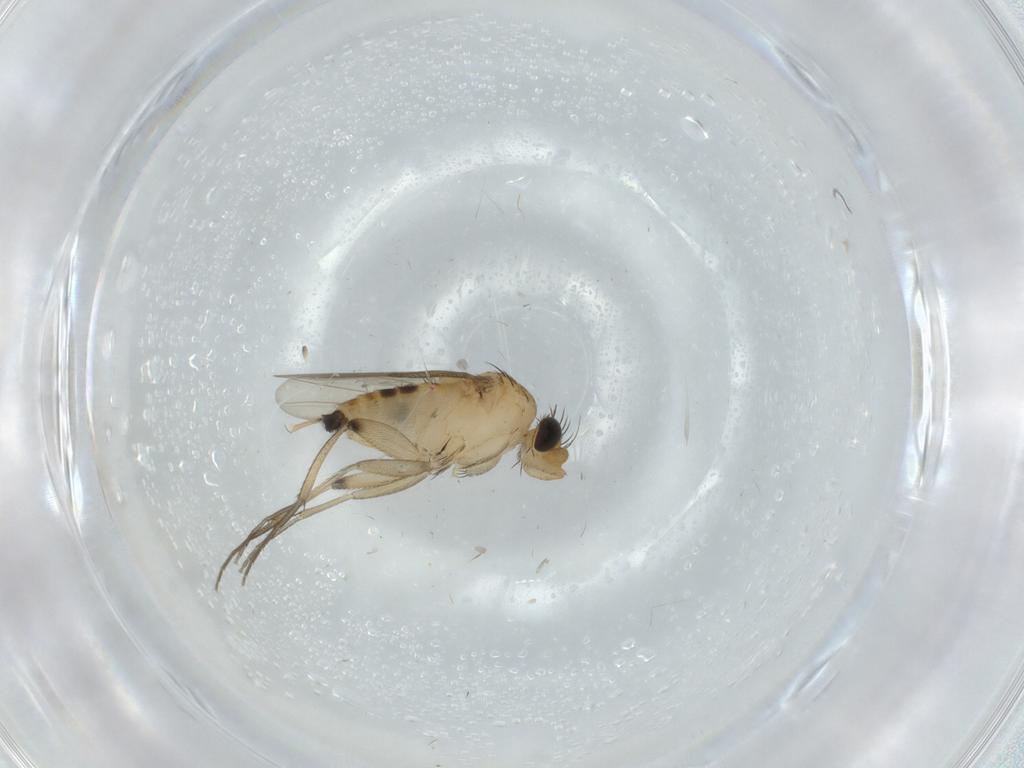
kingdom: Animalia
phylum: Arthropoda
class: Insecta
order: Diptera
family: Phoridae
